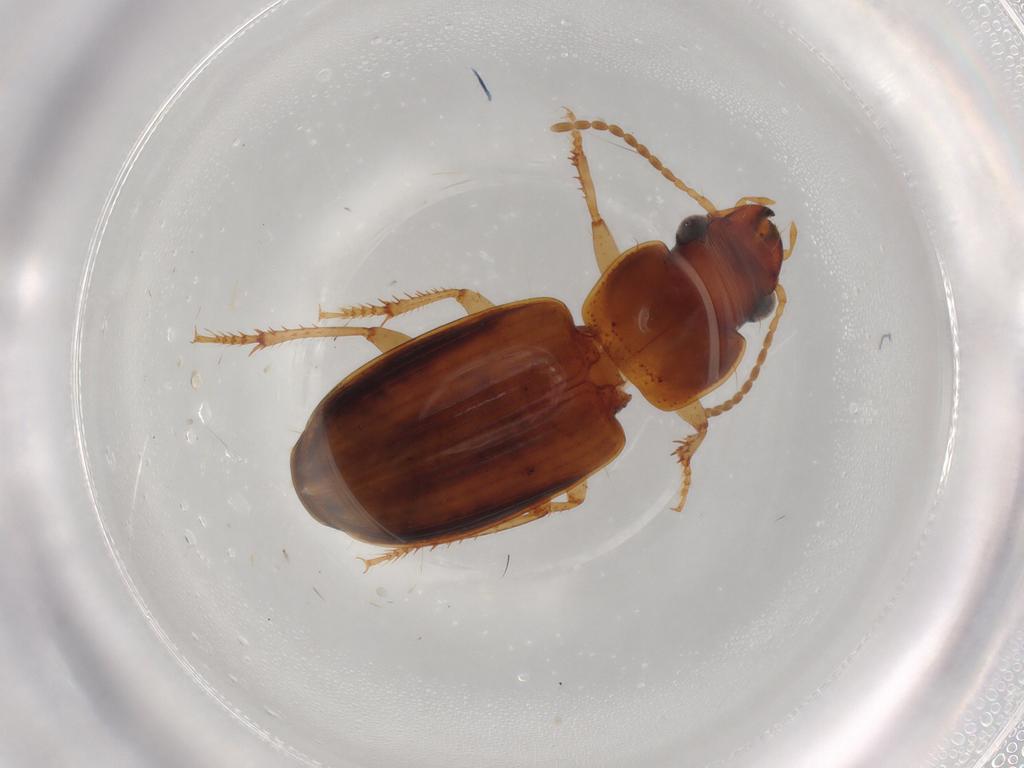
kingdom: Animalia
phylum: Arthropoda
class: Insecta
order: Coleoptera
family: Carabidae
